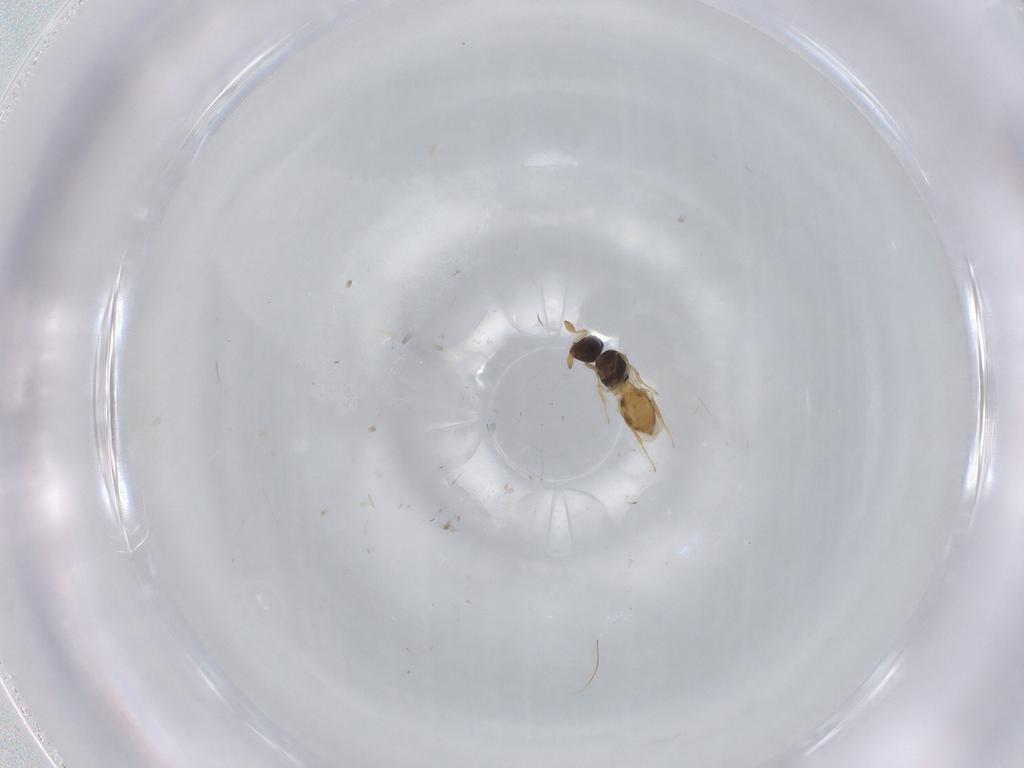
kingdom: Animalia
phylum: Arthropoda
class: Insecta
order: Hymenoptera
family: Scelionidae
